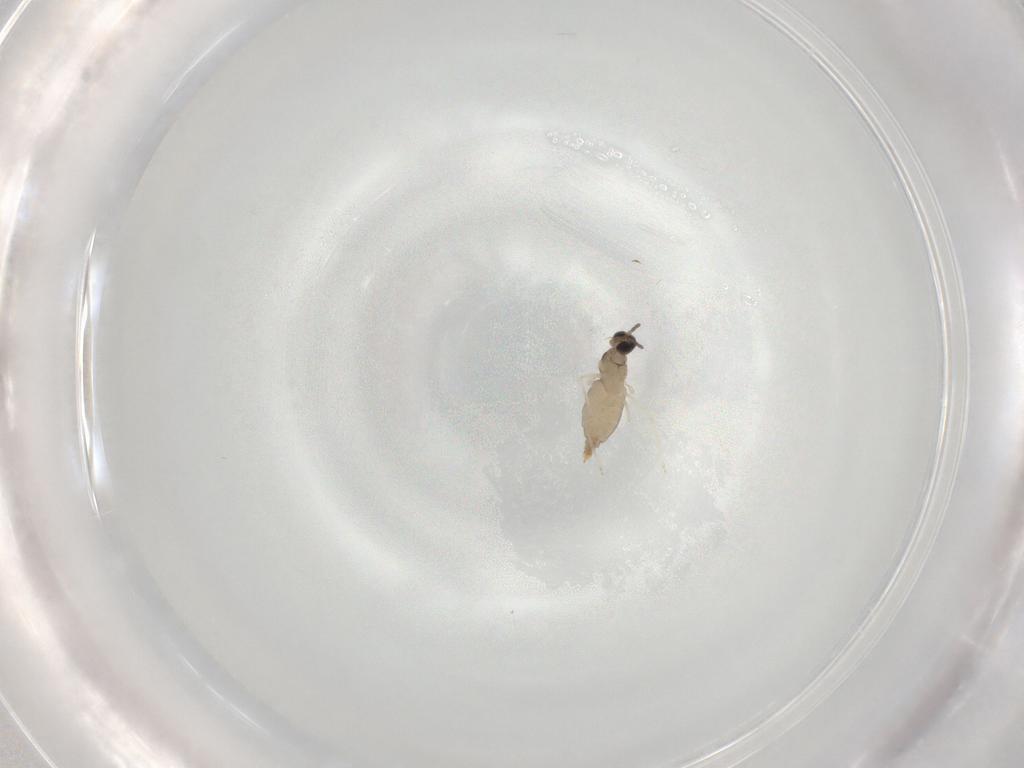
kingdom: Animalia
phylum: Arthropoda
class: Insecta
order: Diptera
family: Cecidomyiidae
